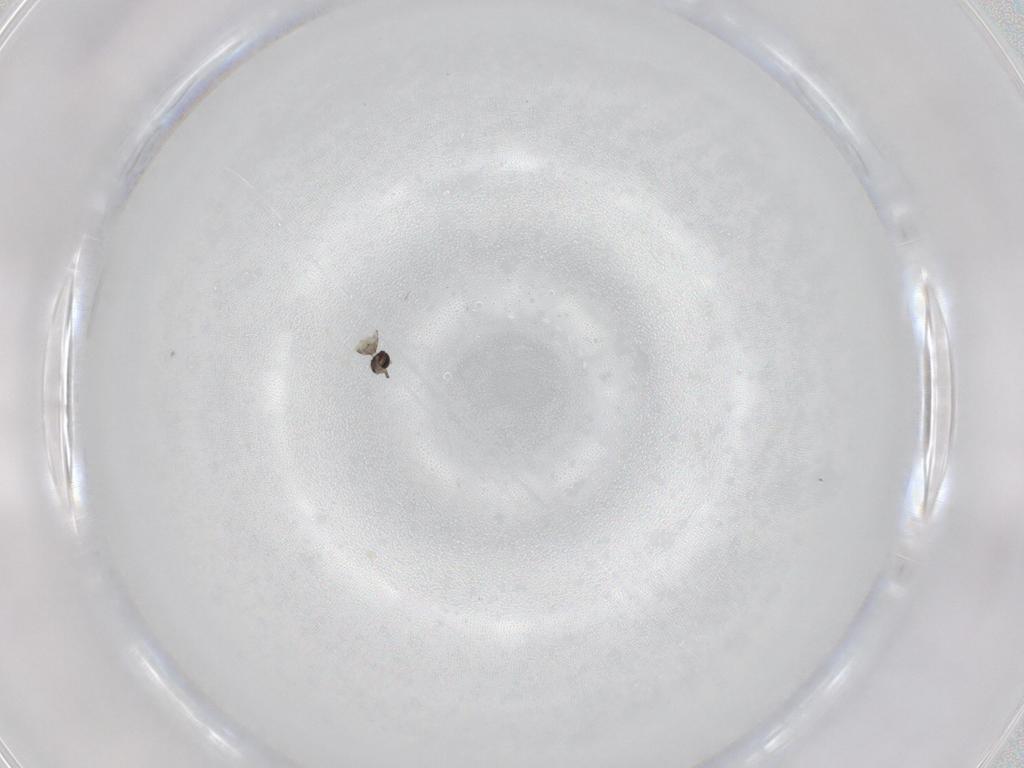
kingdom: Animalia
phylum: Arthropoda
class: Insecta
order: Diptera
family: Cecidomyiidae
